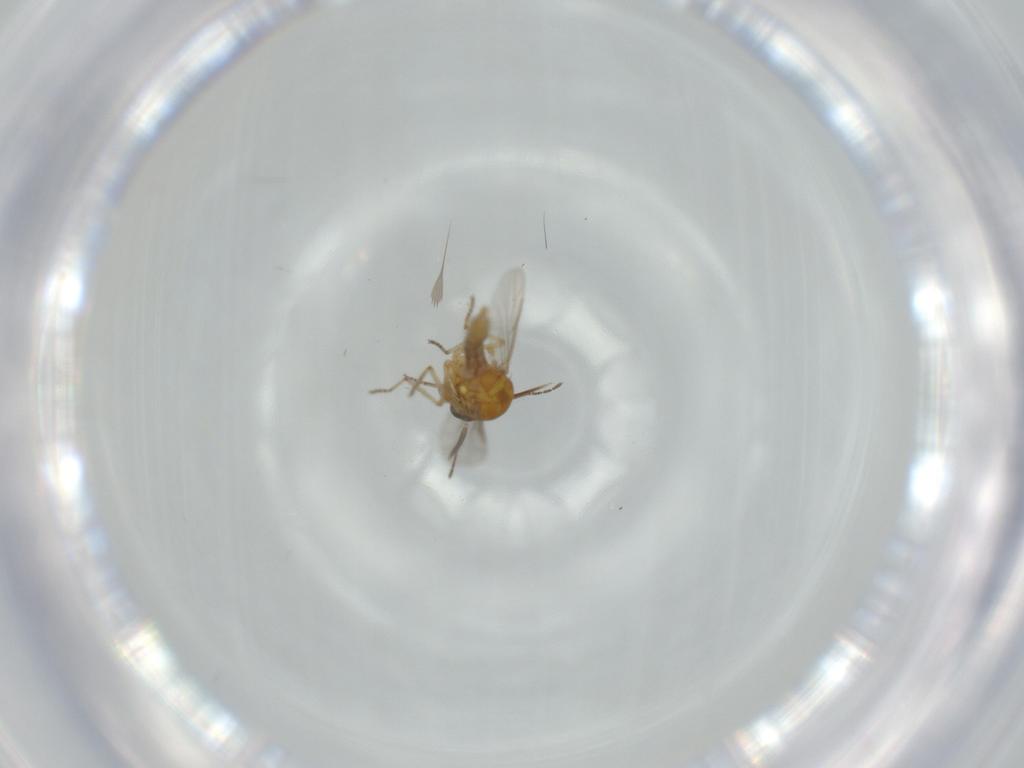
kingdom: Animalia
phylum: Arthropoda
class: Insecta
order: Diptera
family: Ceratopogonidae
